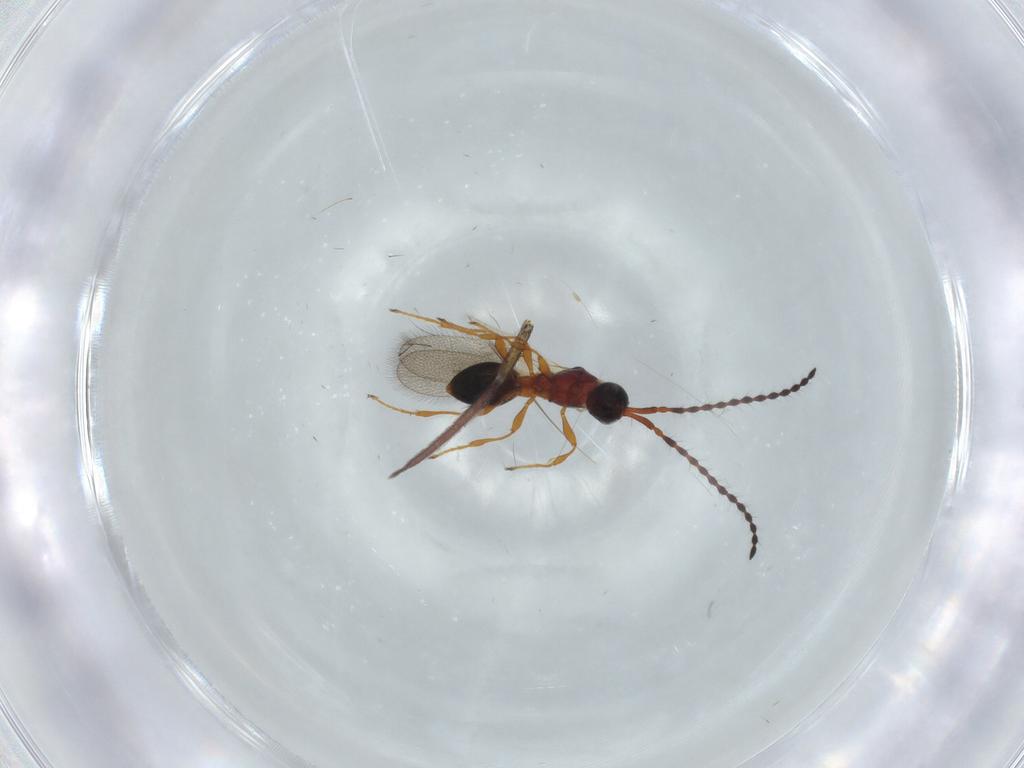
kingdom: Animalia
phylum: Arthropoda
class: Insecta
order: Hymenoptera
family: Diapriidae
